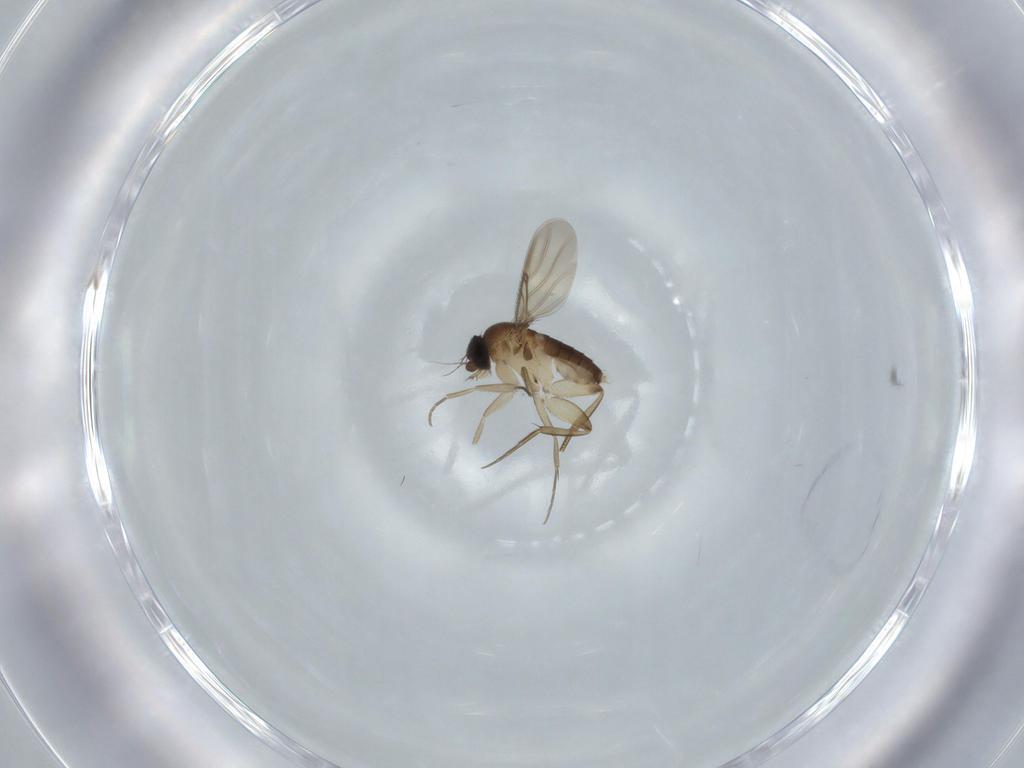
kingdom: Animalia
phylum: Arthropoda
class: Insecta
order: Diptera
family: Phoridae
